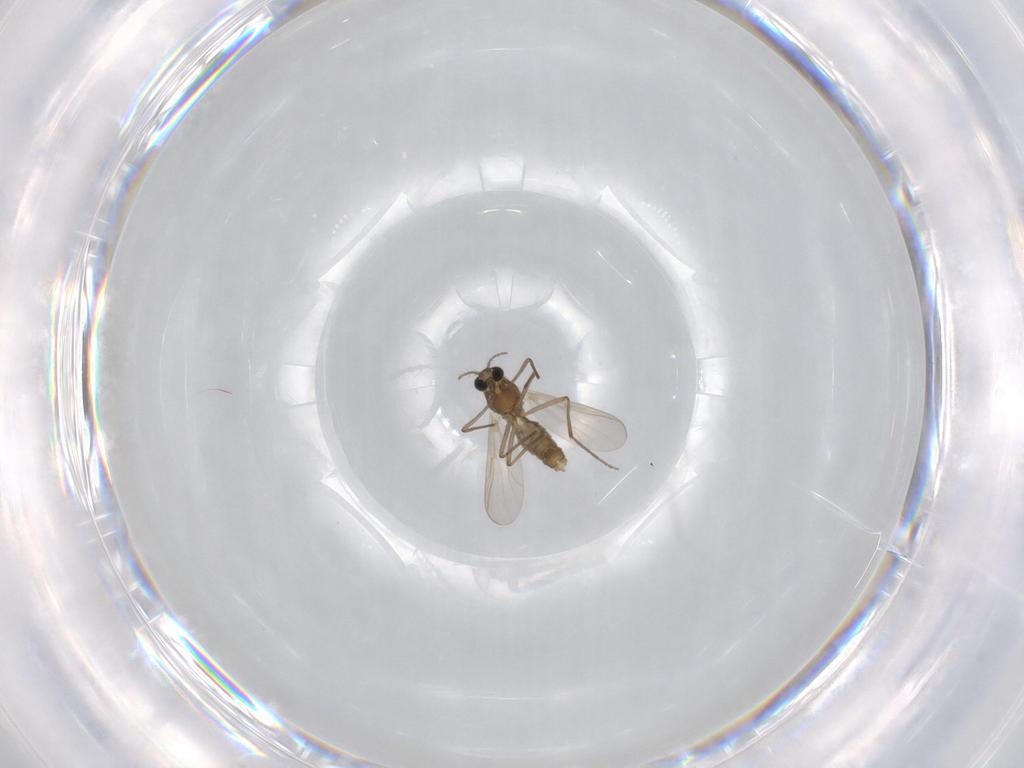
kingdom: Animalia
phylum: Arthropoda
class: Insecta
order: Diptera
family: Chironomidae
